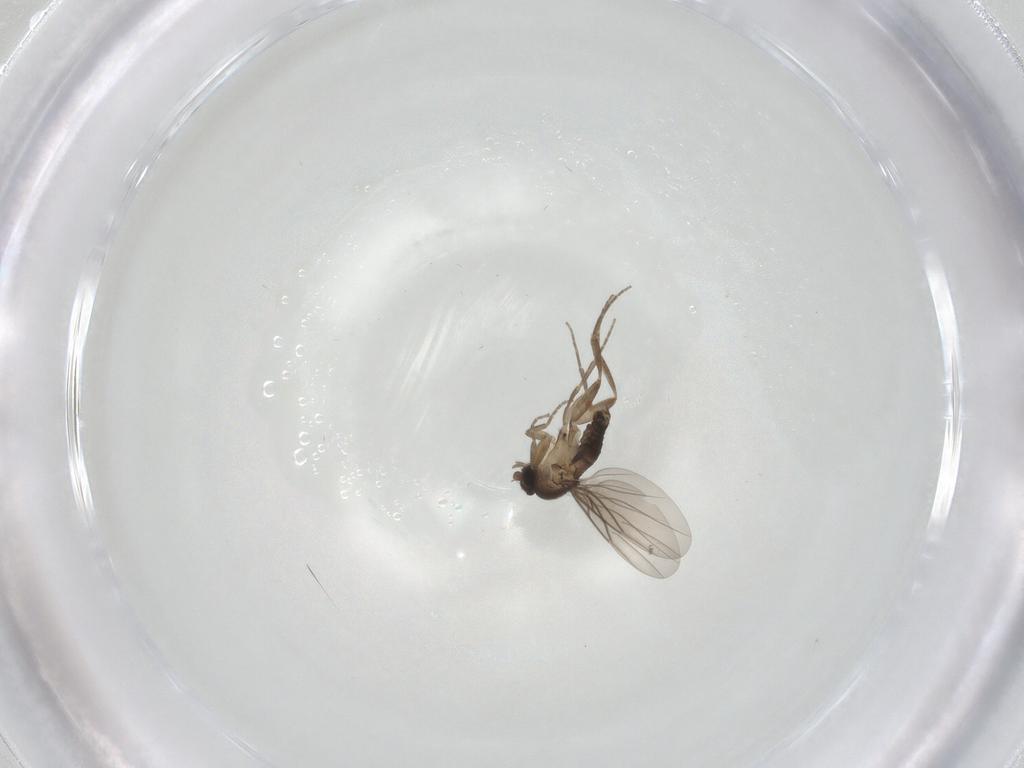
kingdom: Animalia
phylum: Arthropoda
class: Insecta
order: Diptera
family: Phoridae
